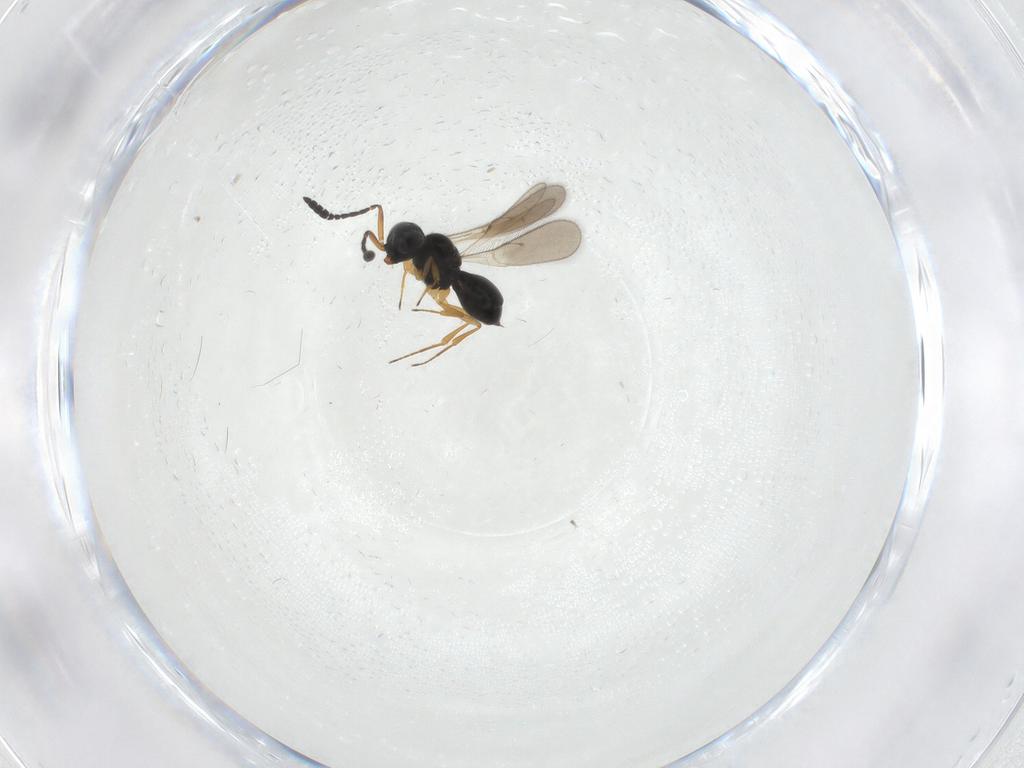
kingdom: Animalia
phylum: Arthropoda
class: Insecta
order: Hymenoptera
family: Scelionidae
